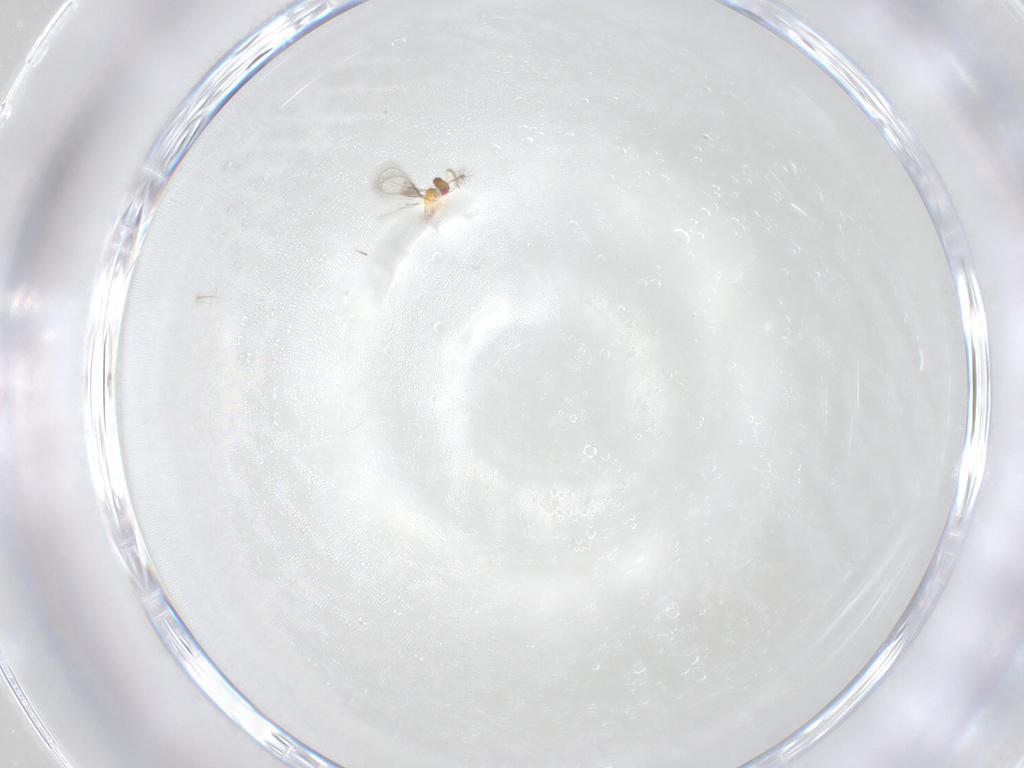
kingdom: Animalia
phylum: Arthropoda
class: Insecta
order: Hymenoptera
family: Trichogrammatidae
